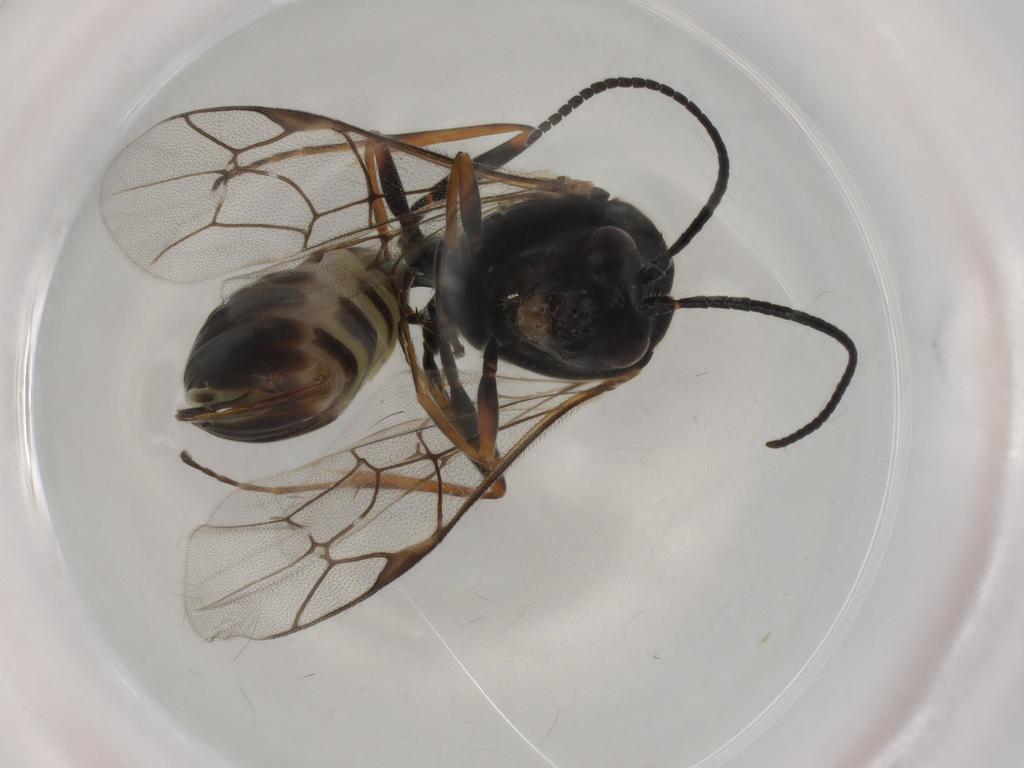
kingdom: Animalia
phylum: Arthropoda
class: Insecta
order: Hymenoptera
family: Ichneumonidae
